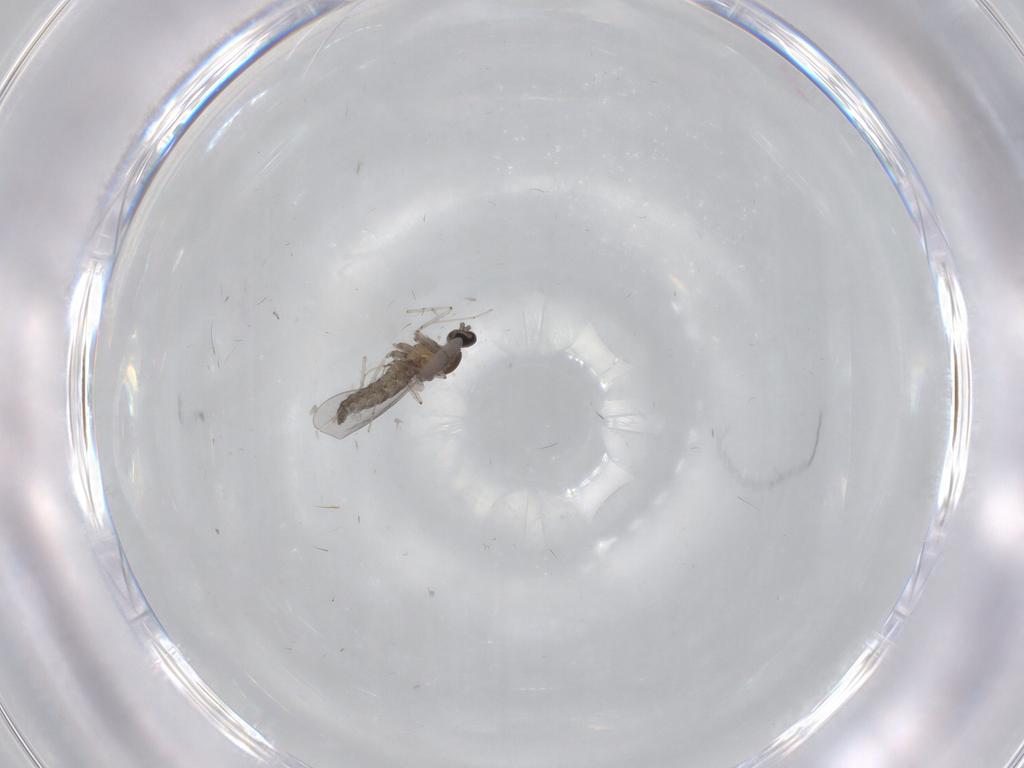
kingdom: Animalia
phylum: Arthropoda
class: Insecta
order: Diptera
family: Cecidomyiidae
